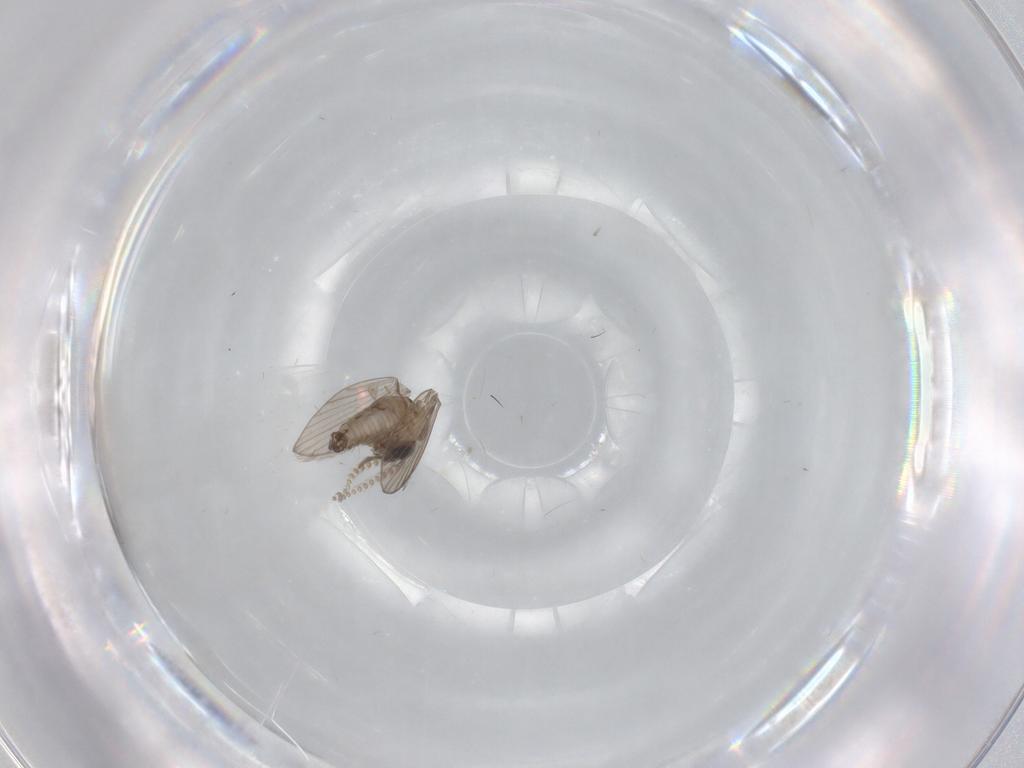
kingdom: Animalia
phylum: Arthropoda
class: Insecta
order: Diptera
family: Psychodidae
